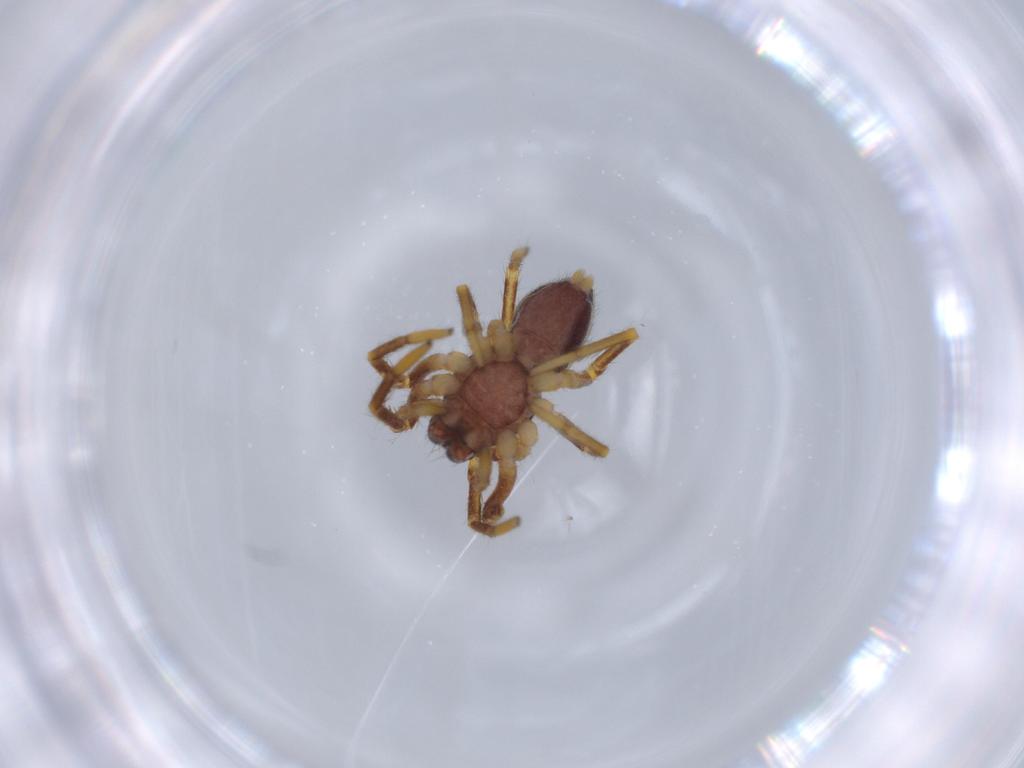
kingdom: Animalia
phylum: Arthropoda
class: Arachnida
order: Araneae
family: Corinnidae
